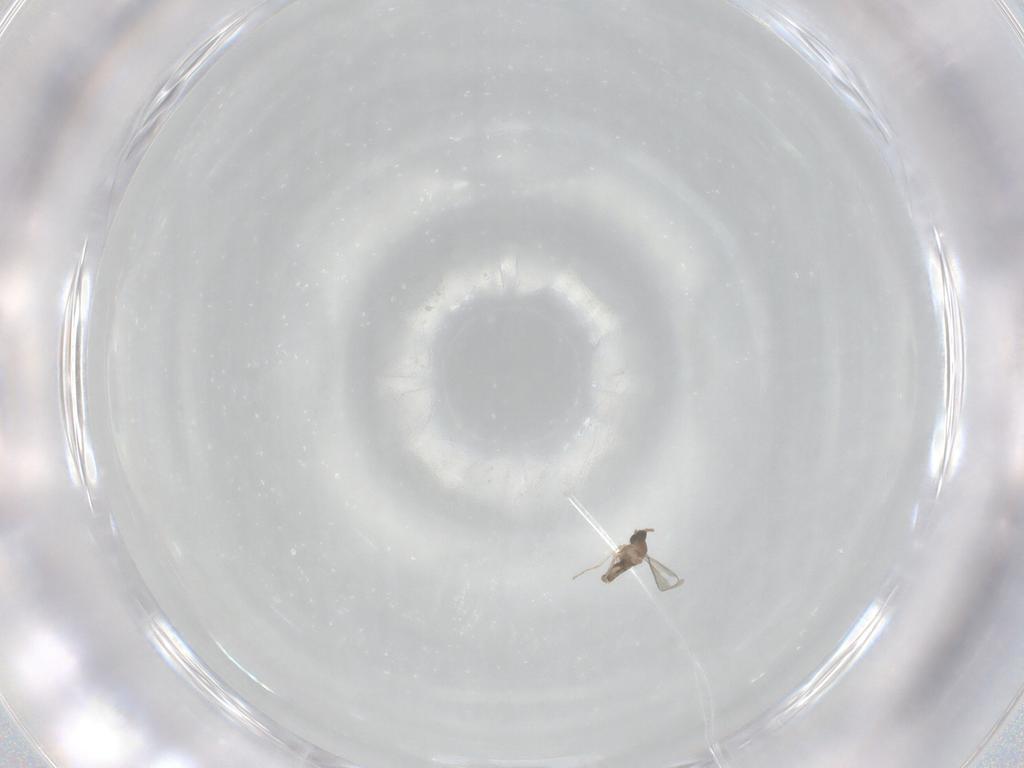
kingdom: Animalia
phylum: Arthropoda
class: Insecta
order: Diptera
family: Cecidomyiidae
